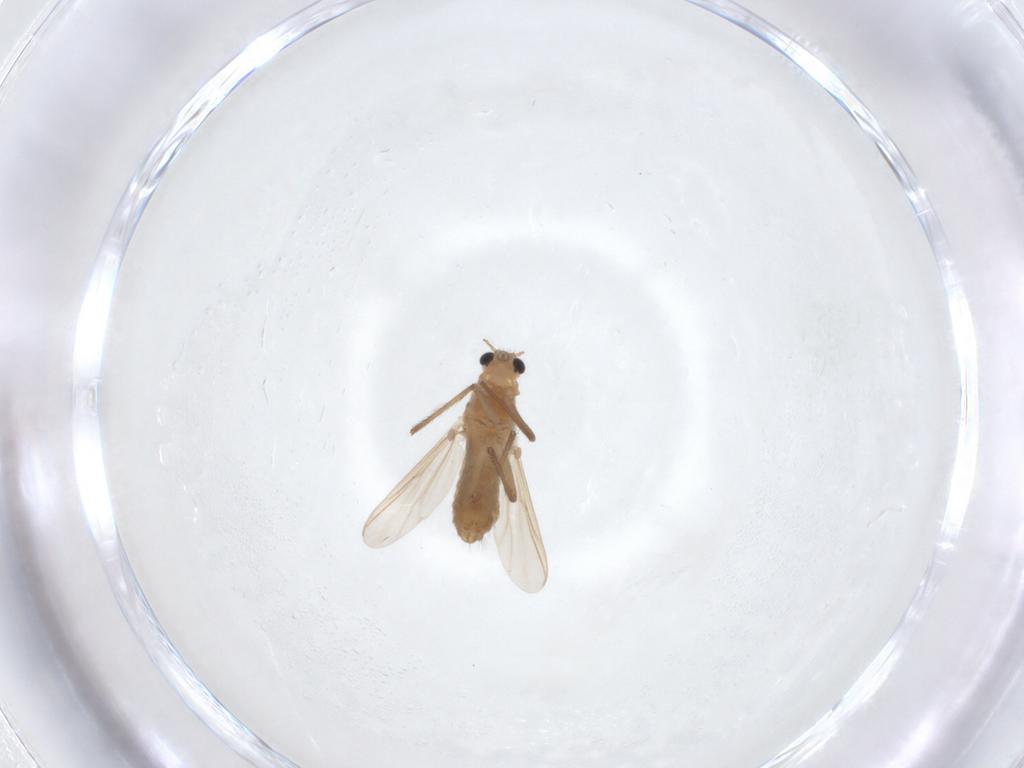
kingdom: Animalia
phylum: Arthropoda
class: Insecta
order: Diptera
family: Chironomidae
